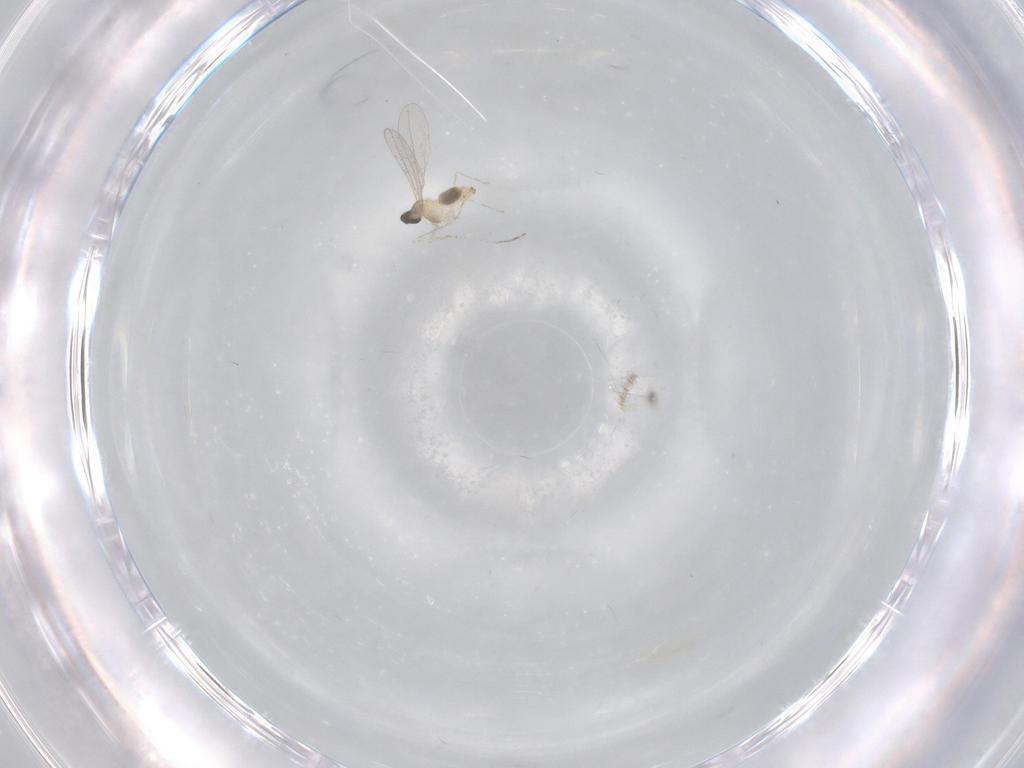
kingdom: Animalia
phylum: Arthropoda
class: Insecta
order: Diptera
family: Cecidomyiidae
